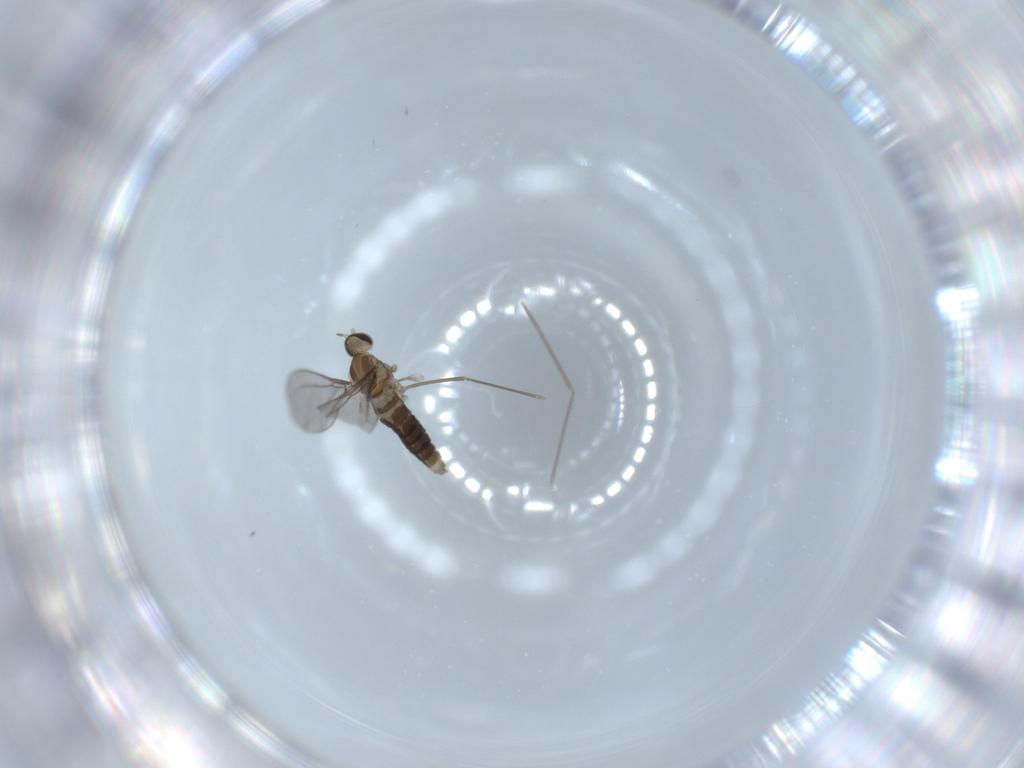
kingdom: Animalia
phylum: Arthropoda
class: Insecta
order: Diptera
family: Cecidomyiidae
